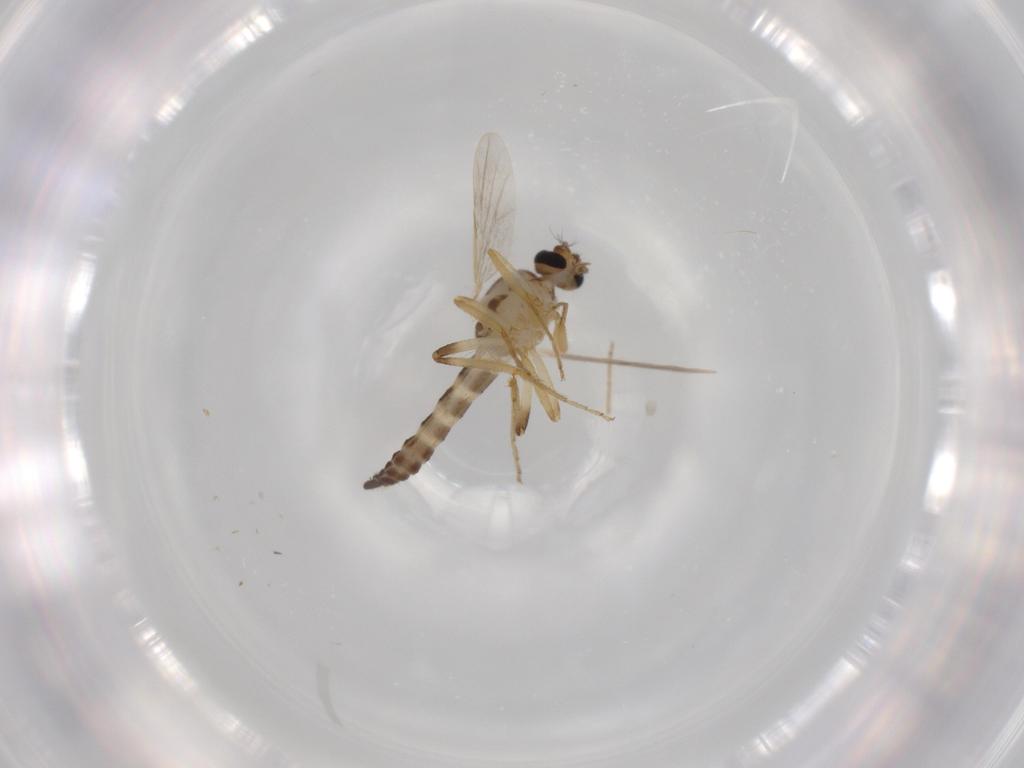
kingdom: Animalia
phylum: Arthropoda
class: Insecta
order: Diptera
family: Ceratopogonidae
